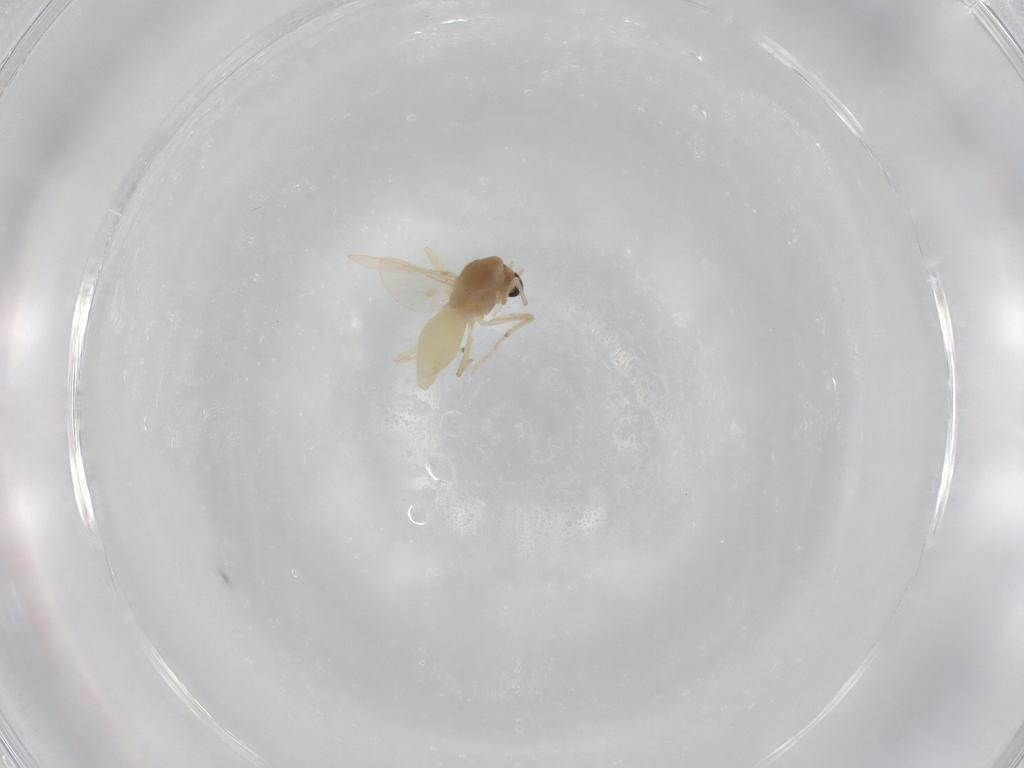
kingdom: Animalia
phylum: Arthropoda
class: Insecta
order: Diptera
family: Chironomidae
